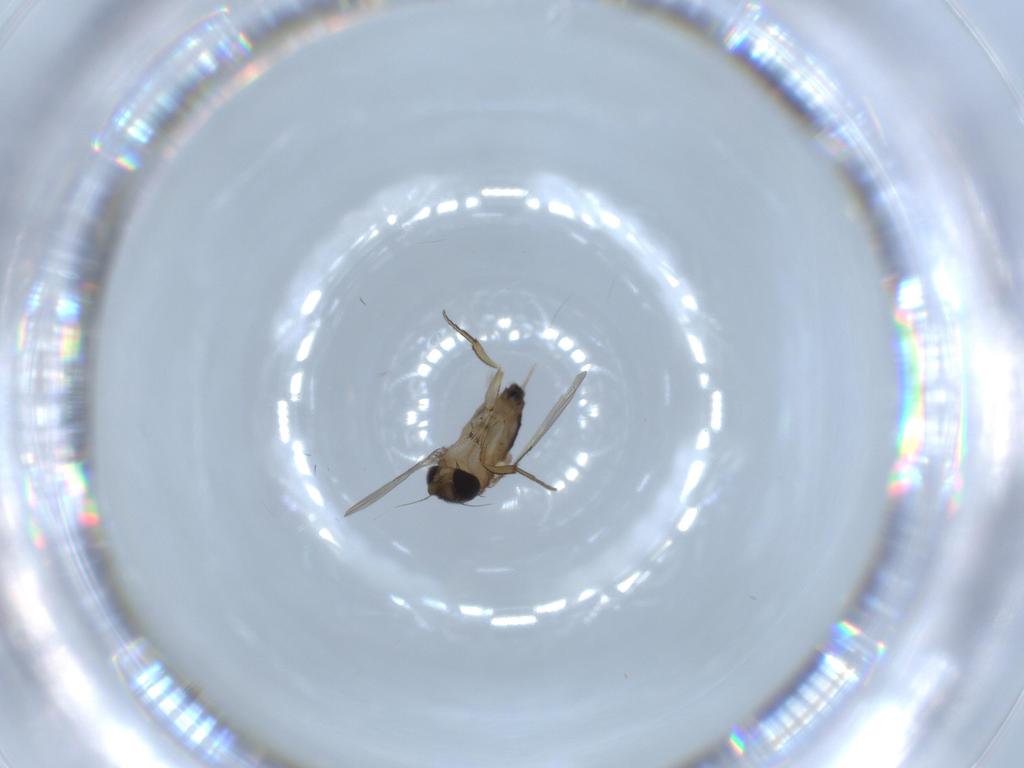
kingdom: Animalia
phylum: Arthropoda
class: Insecta
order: Diptera
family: Phoridae
